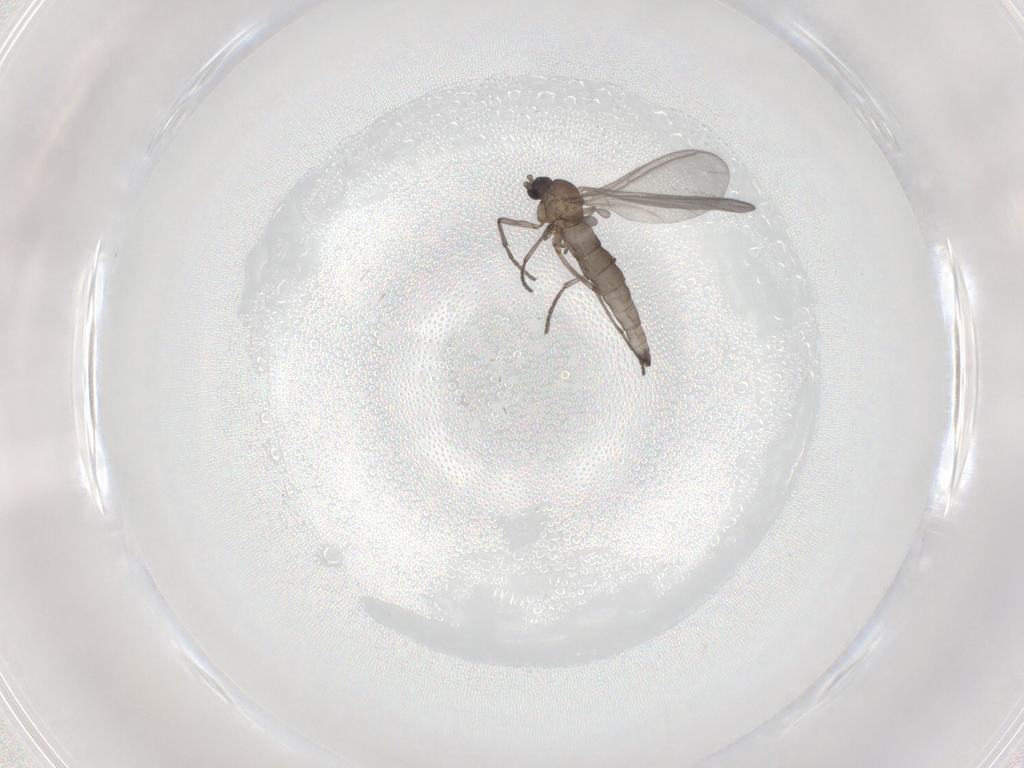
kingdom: Animalia
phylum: Arthropoda
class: Insecta
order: Diptera
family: Sciaridae
